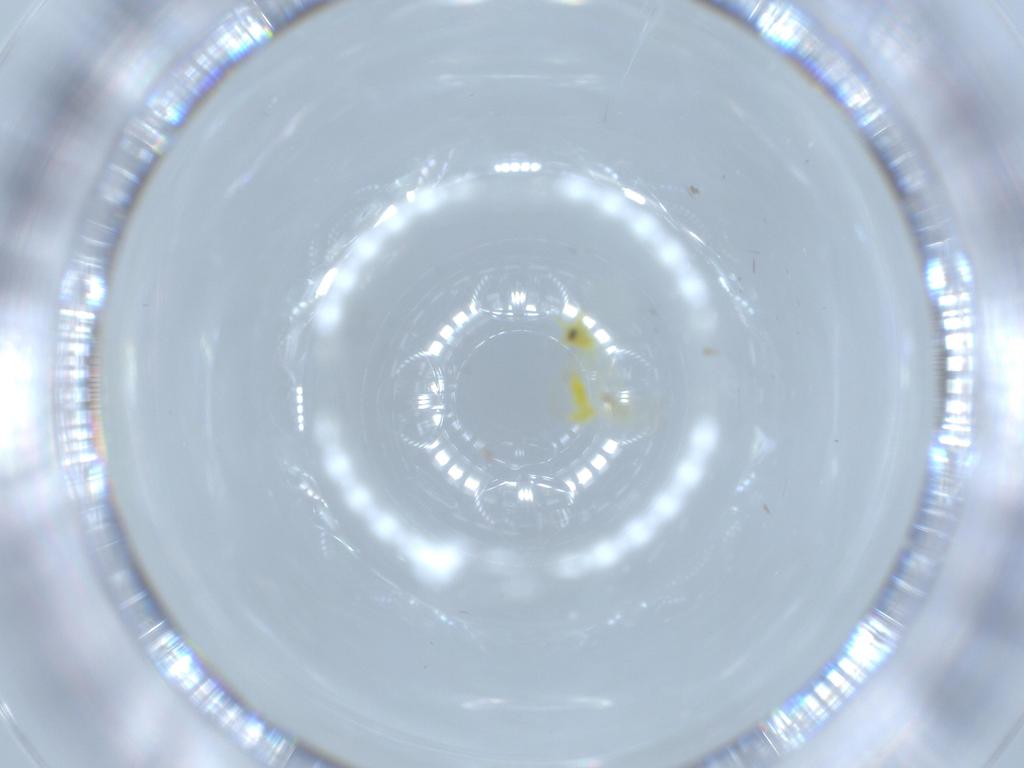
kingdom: Animalia
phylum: Arthropoda
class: Insecta
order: Hemiptera
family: Aleyrodidae
